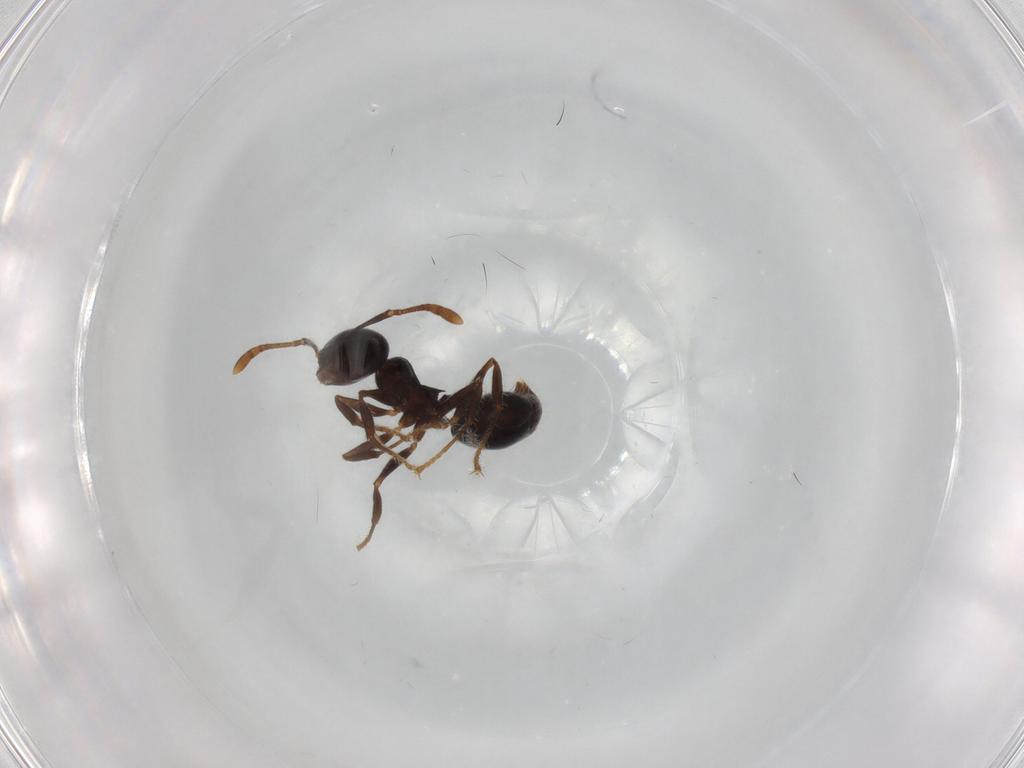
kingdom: Animalia
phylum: Arthropoda
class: Insecta
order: Hymenoptera
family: Formicidae
